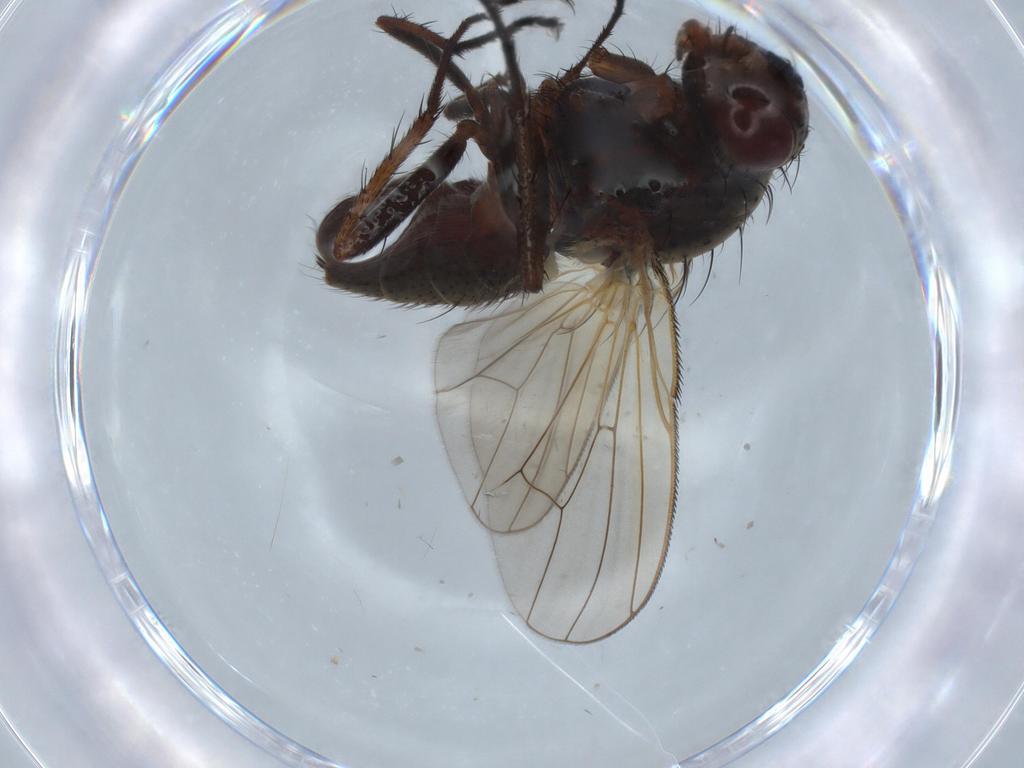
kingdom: Animalia
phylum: Arthropoda
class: Insecta
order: Diptera
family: Anthomyiidae
